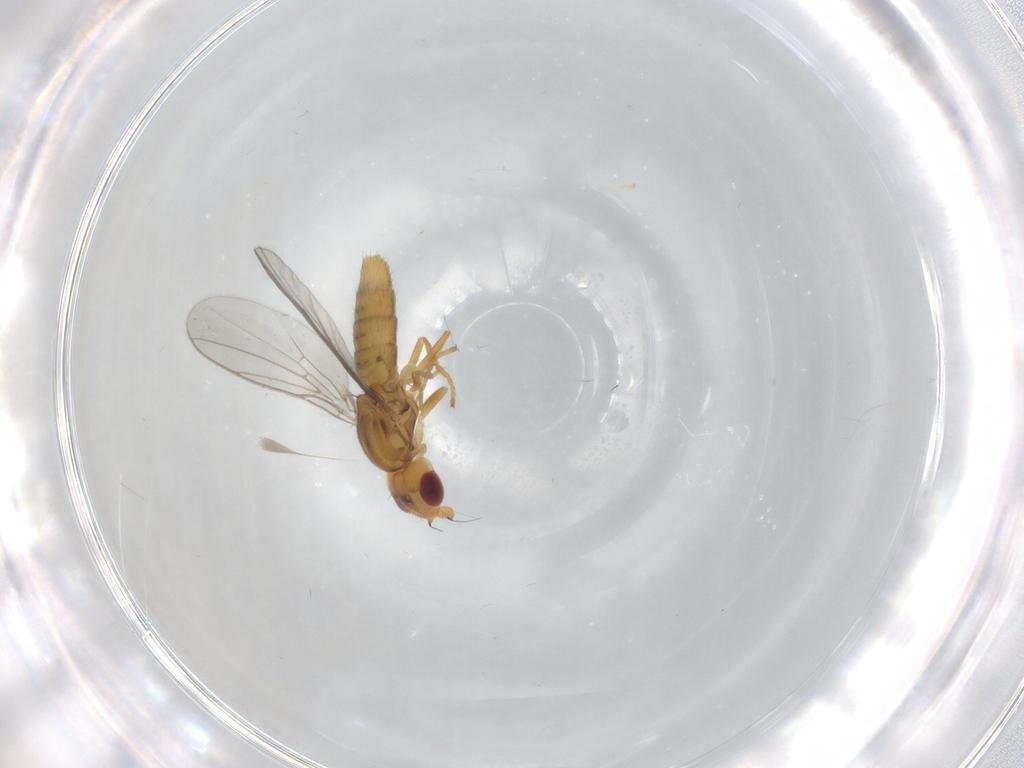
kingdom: Animalia
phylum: Arthropoda
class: Insecta
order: Diptera
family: Chloropidae
